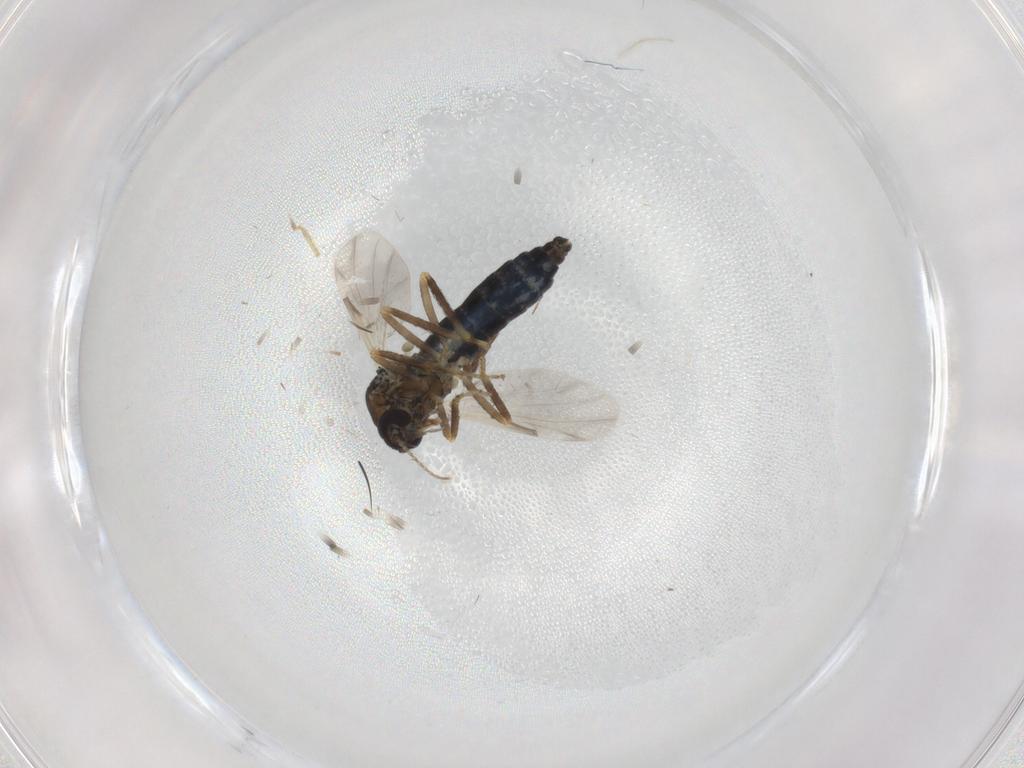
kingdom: Animalia
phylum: Arthropoda
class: Insecta
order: Diptera
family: Ceratopogonidae
